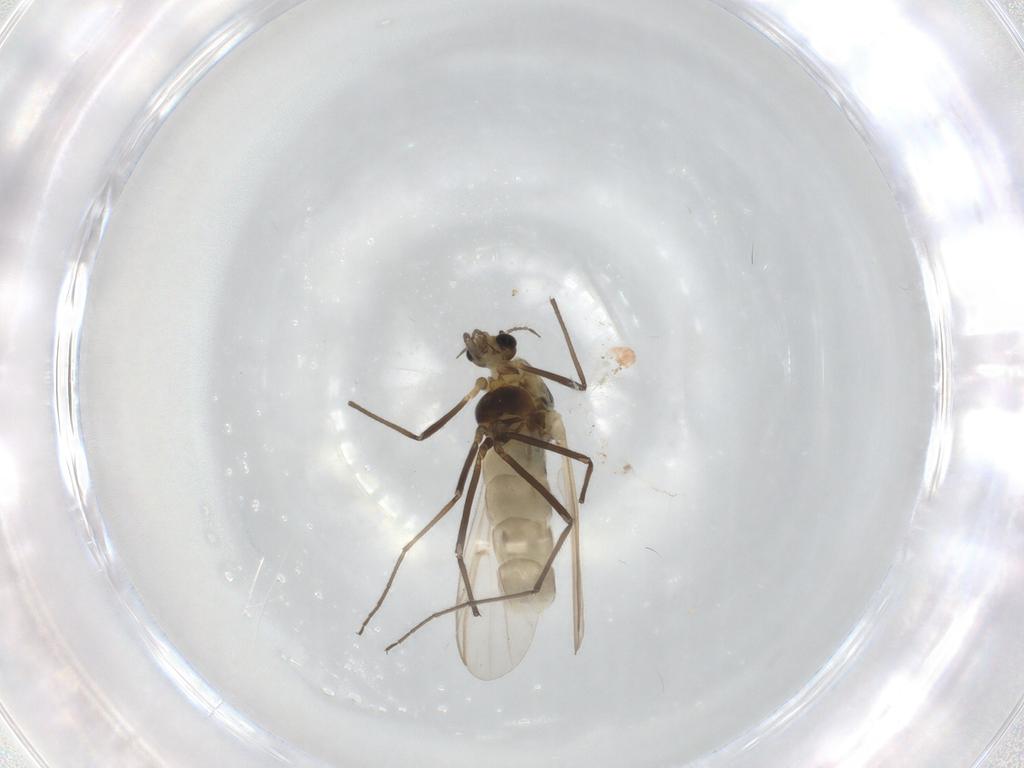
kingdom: Animalia
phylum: Arthropoda
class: Insecta
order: Diptera
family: Chironomidae
